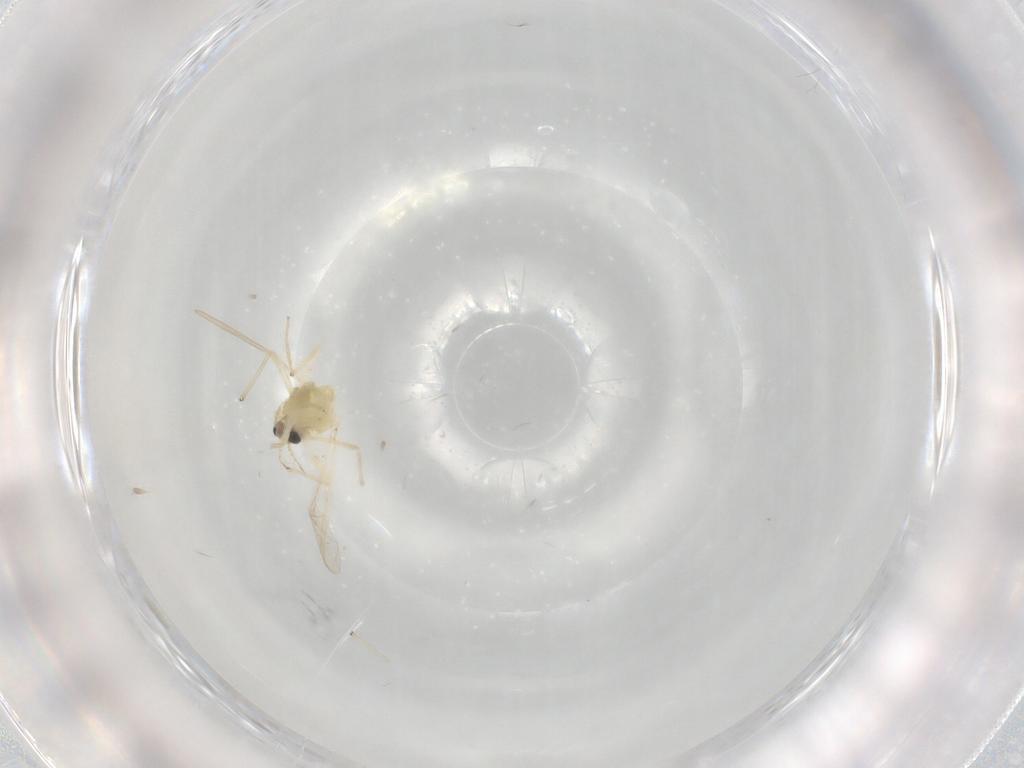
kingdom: Animalia
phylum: Arthropoda
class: Insecta
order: Diptera
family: Chironomidae
